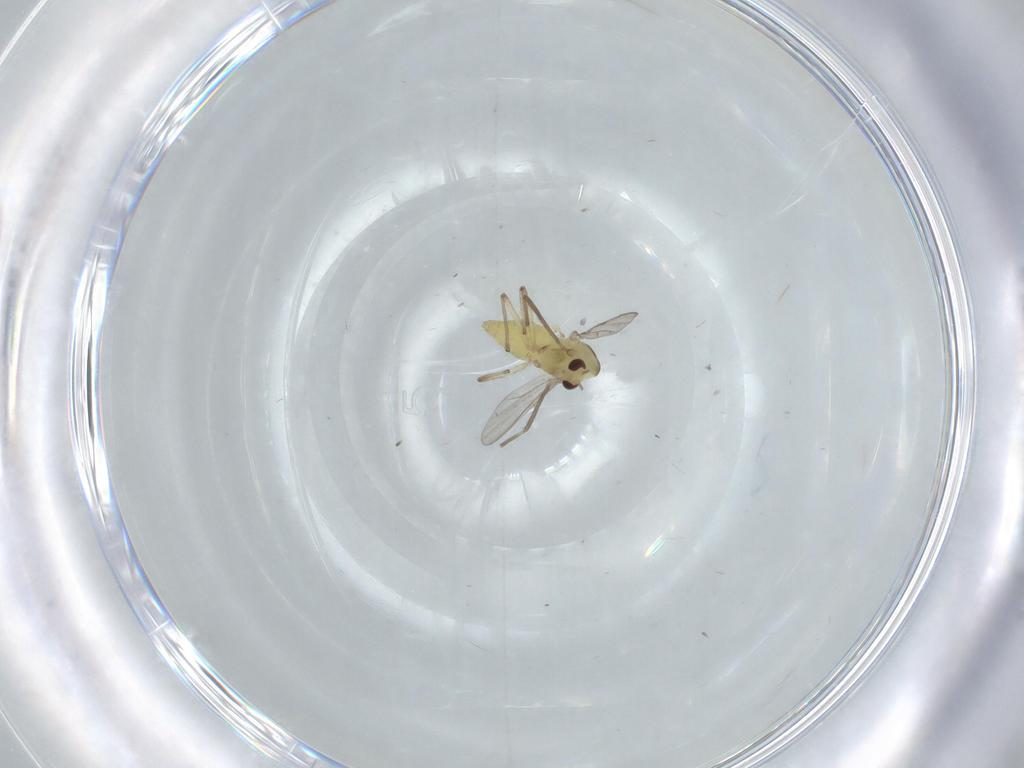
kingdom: Animalia
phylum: Arthropoda
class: Insecta
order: Diptera
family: Chironomidae
